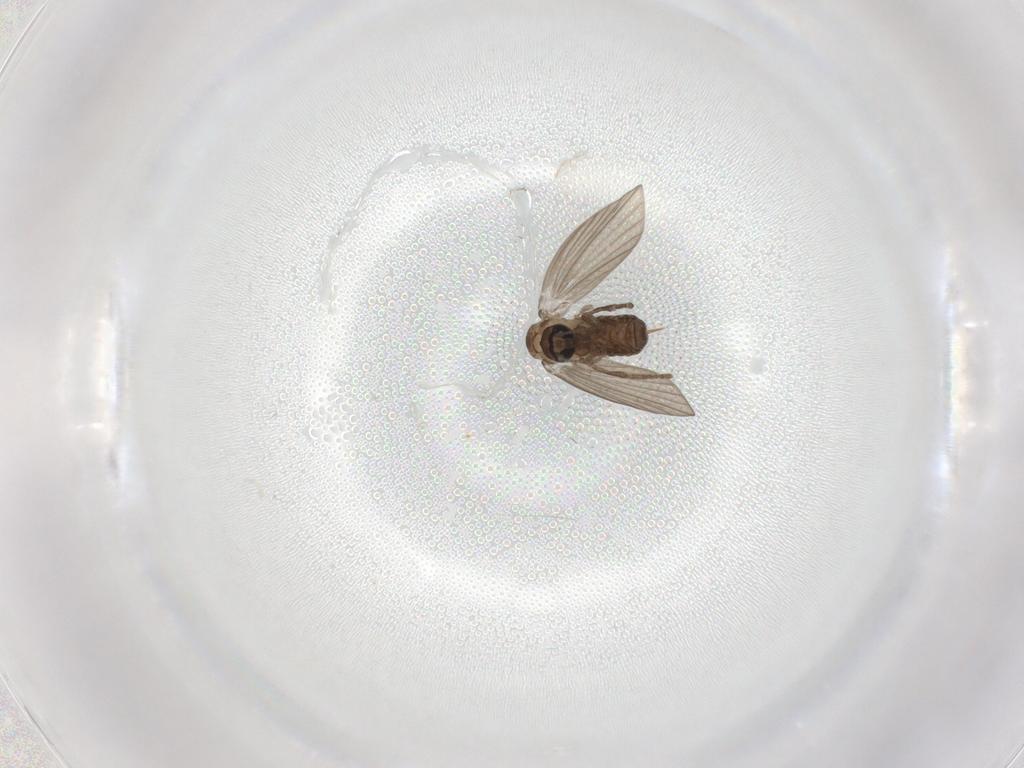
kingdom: Animalia
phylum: Arthropoda
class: Insecta
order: Diptera
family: Psychodidae
